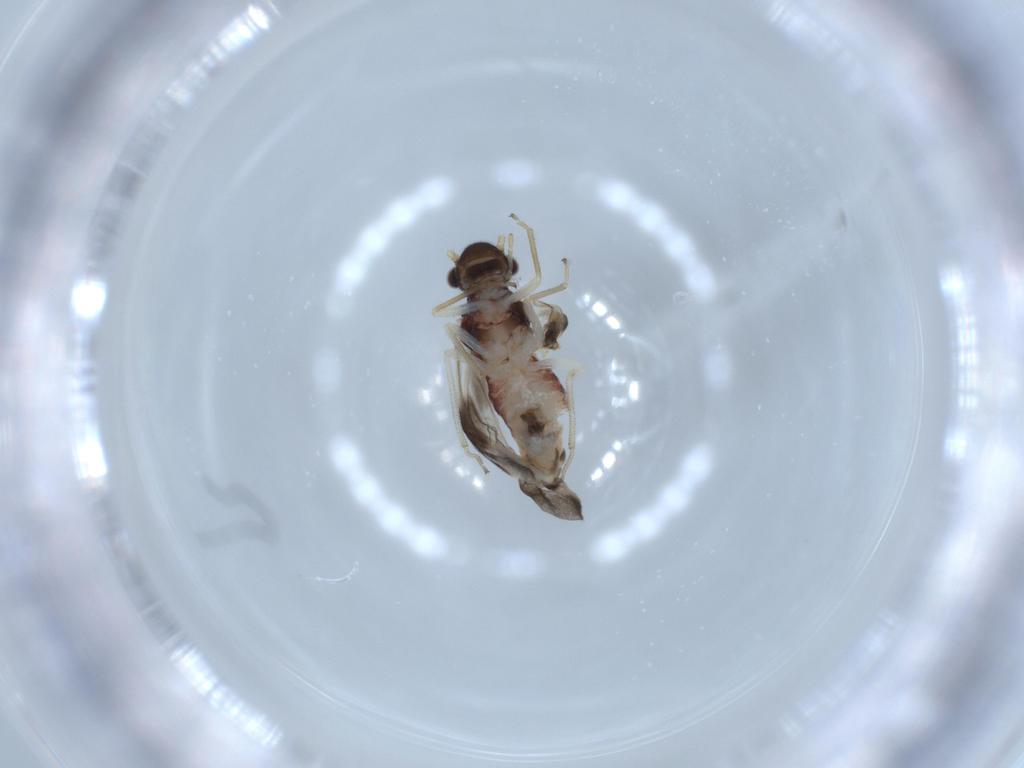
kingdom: Animalia
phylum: Arthropoda
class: Insecta
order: Psocodea
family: Caeciliusidae
